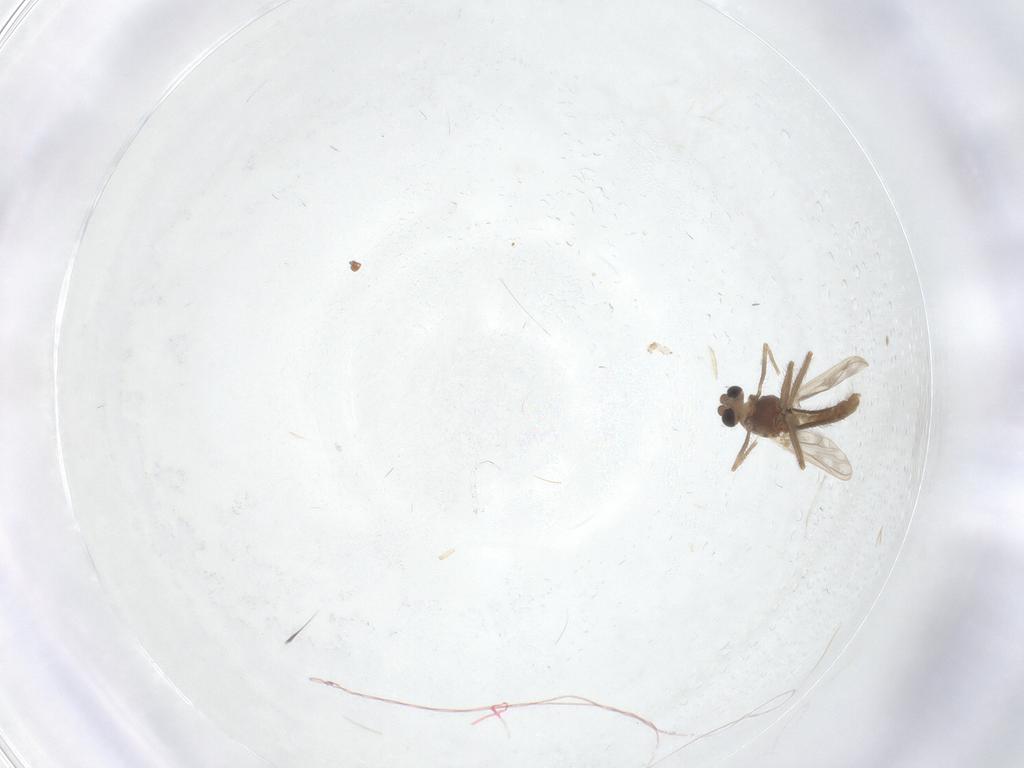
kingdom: Animalia
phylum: Arthropoda
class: Insecta
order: Diptera
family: Chironomidae
